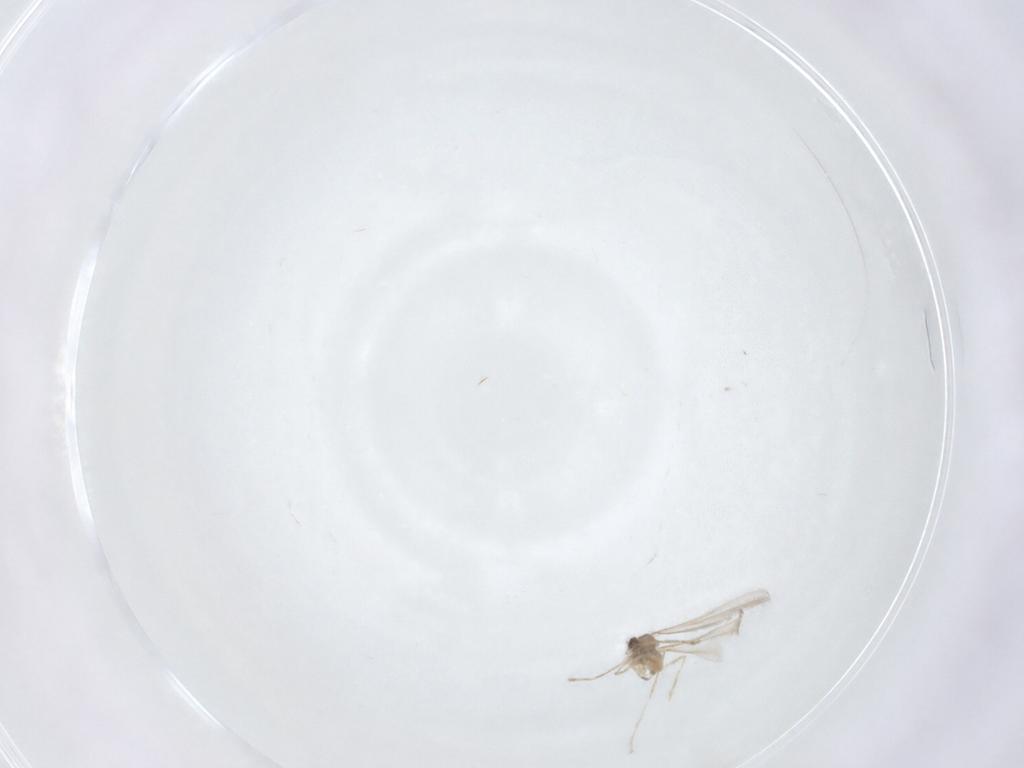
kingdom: Animalia
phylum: Arthropoda
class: Insecta
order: Diptera
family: Cecidomyiidae
